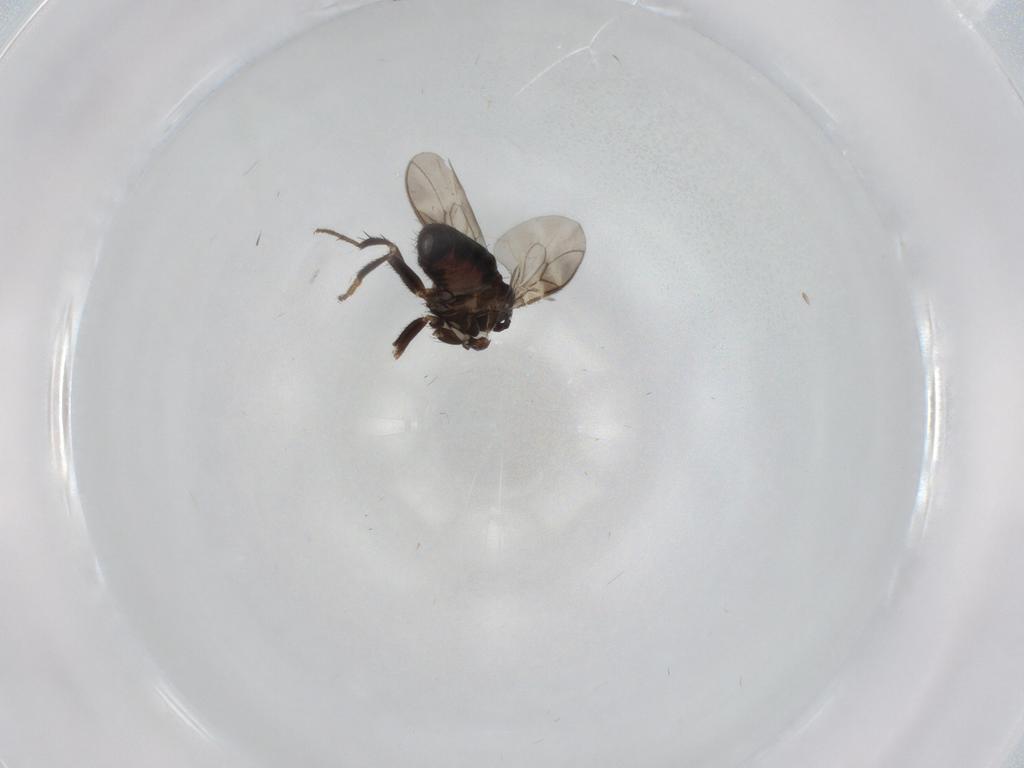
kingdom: Animalia
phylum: Arthropoda
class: Insecta
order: Diptera
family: Sphaeroceridae
